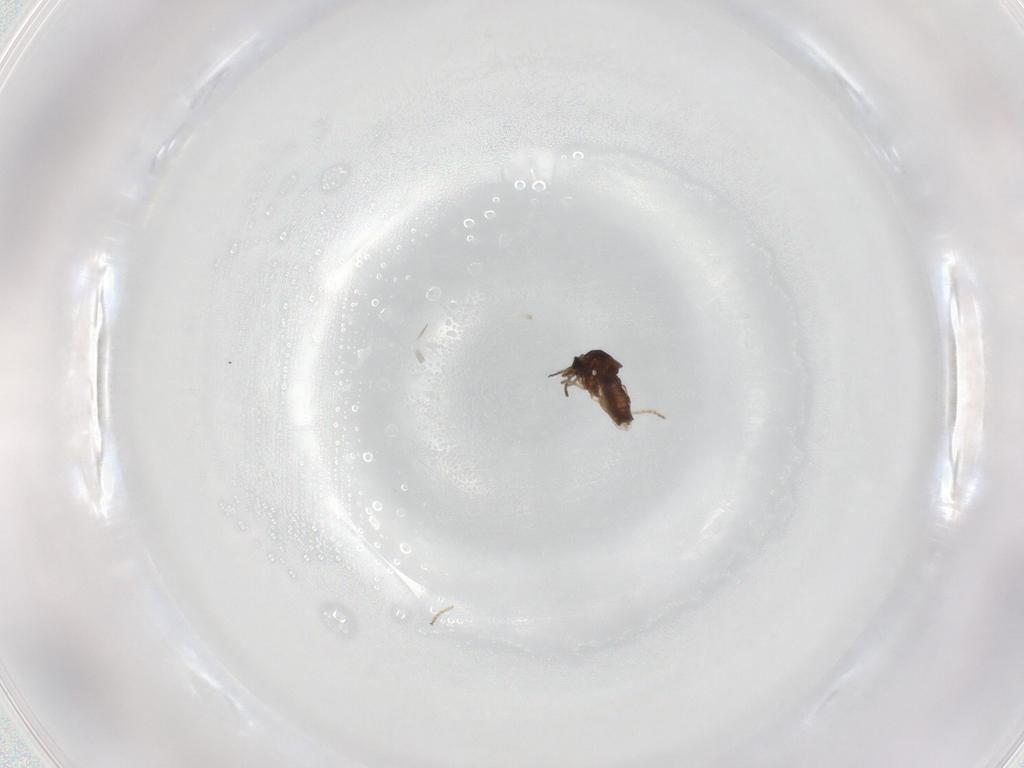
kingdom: Animalia
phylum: Arthropoda
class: Insecta
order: Diptera
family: Ceratopogonidae
